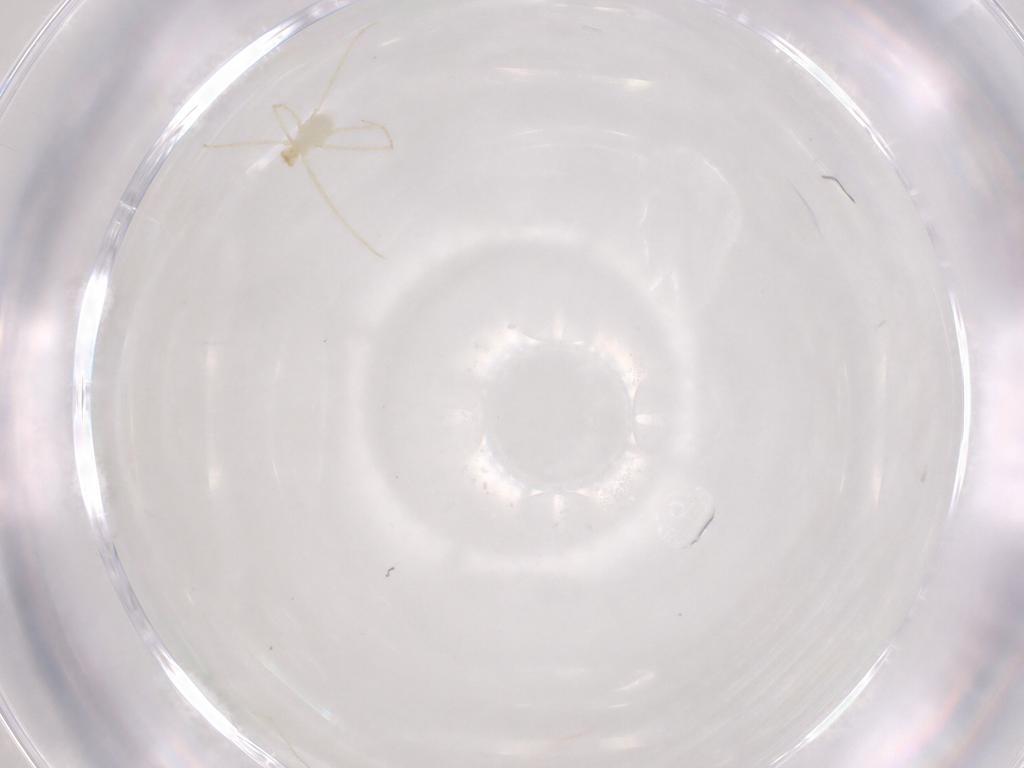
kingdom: Animalia
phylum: Arthropoda
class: Arachnida
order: Trombidiformes
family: Erythraeidae
